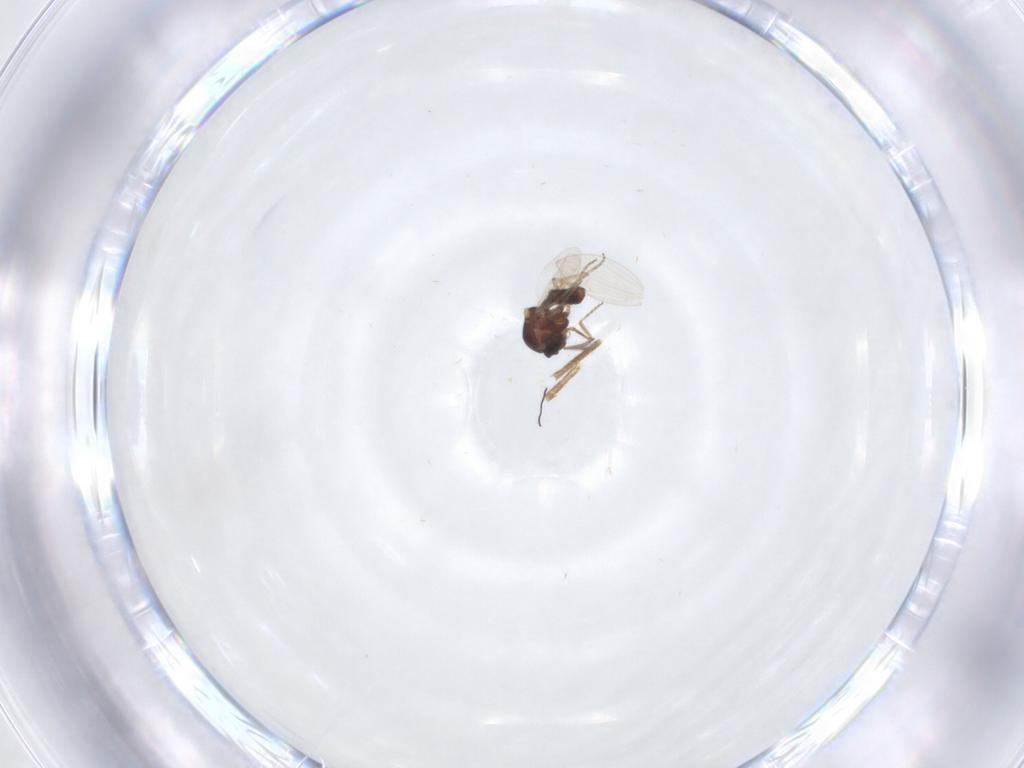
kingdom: Animalia
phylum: Arthropoda
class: Insecta
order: Diptera
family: Ceratopogonidae
